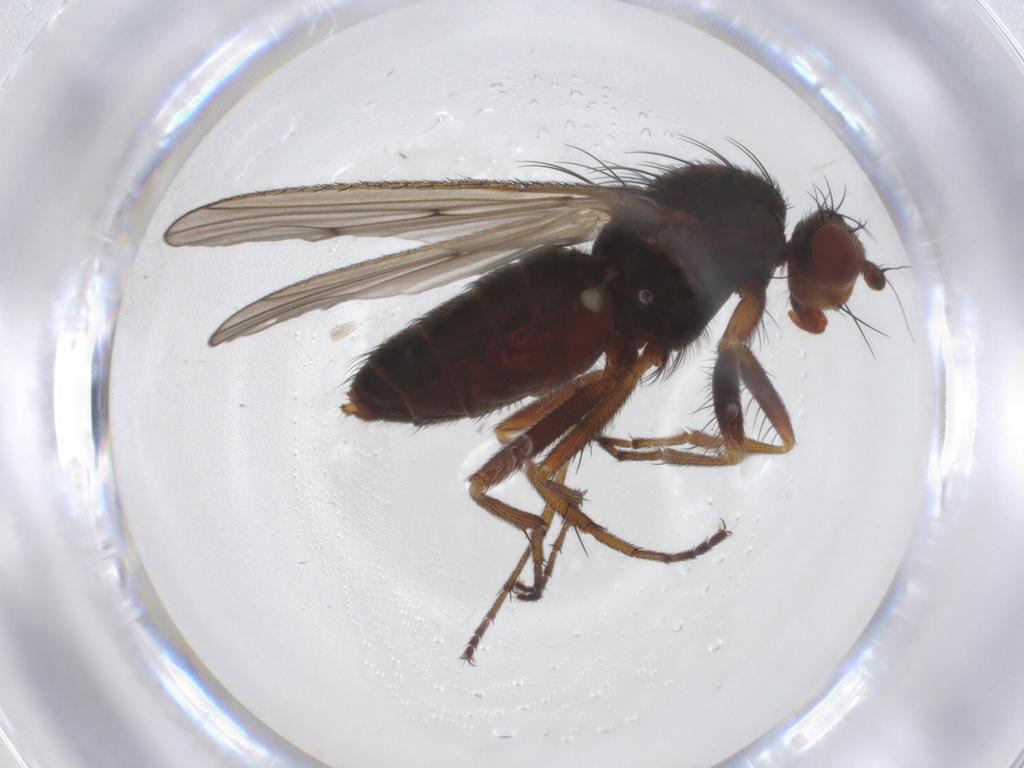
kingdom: Animalia
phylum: Arthropoda
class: Insecta
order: Diptera
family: Heleomyzidae
